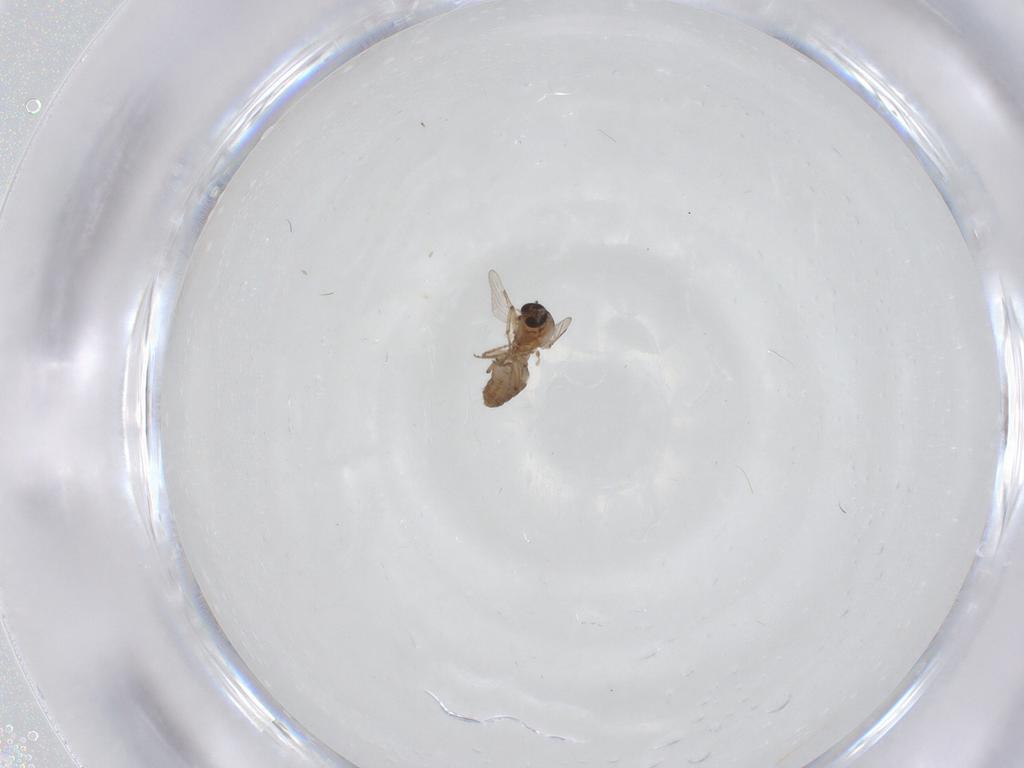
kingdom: Animalia
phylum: Arthropoda
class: Insecta
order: Diptera
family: Ceratopogonidae
